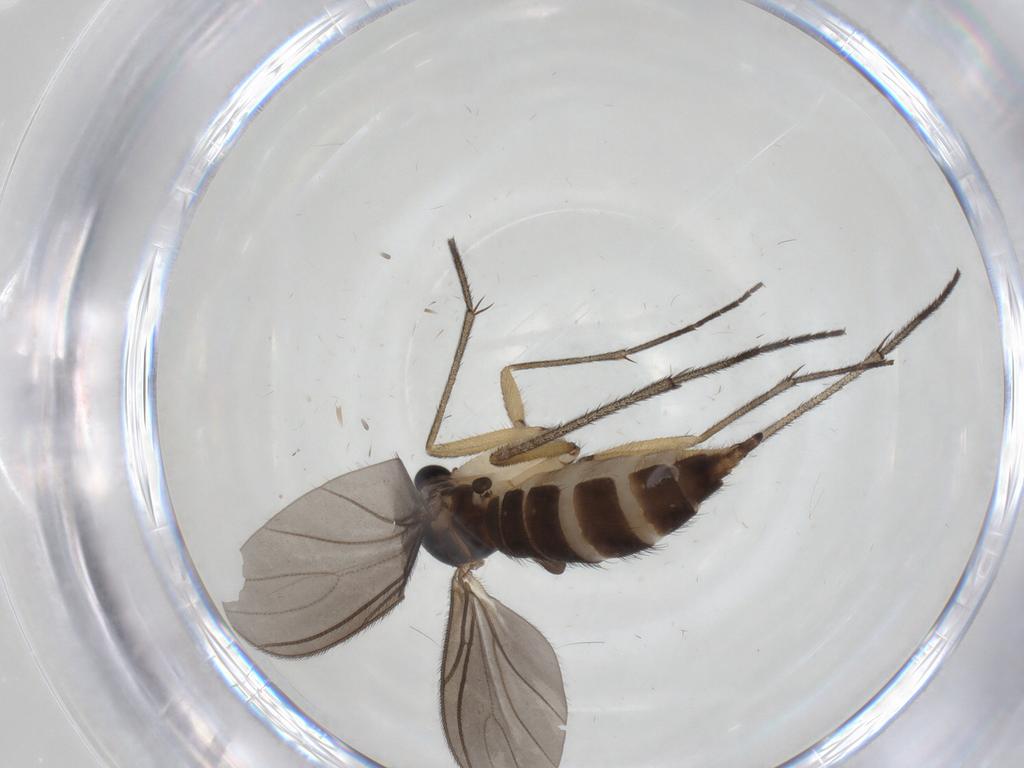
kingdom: Animalia
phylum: Arthropoda
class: Insecta
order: Diptera
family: Sciaridae
